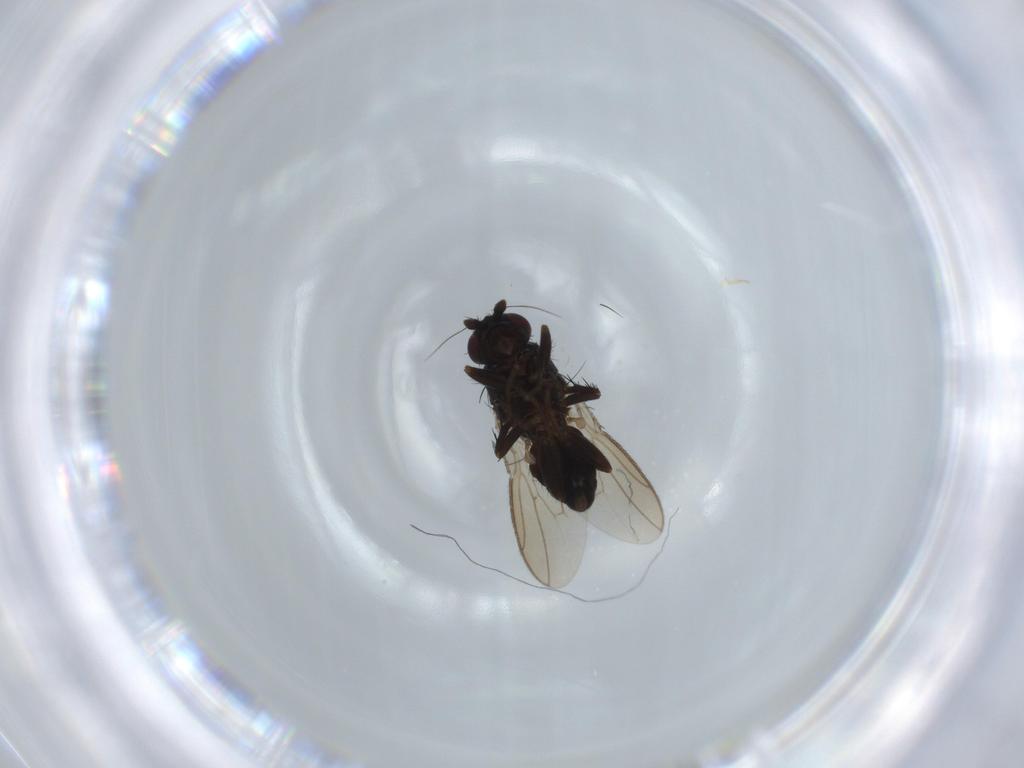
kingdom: Animalia
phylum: Arthropoda
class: Insecta
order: Diptera
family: Sphaeroceridae
